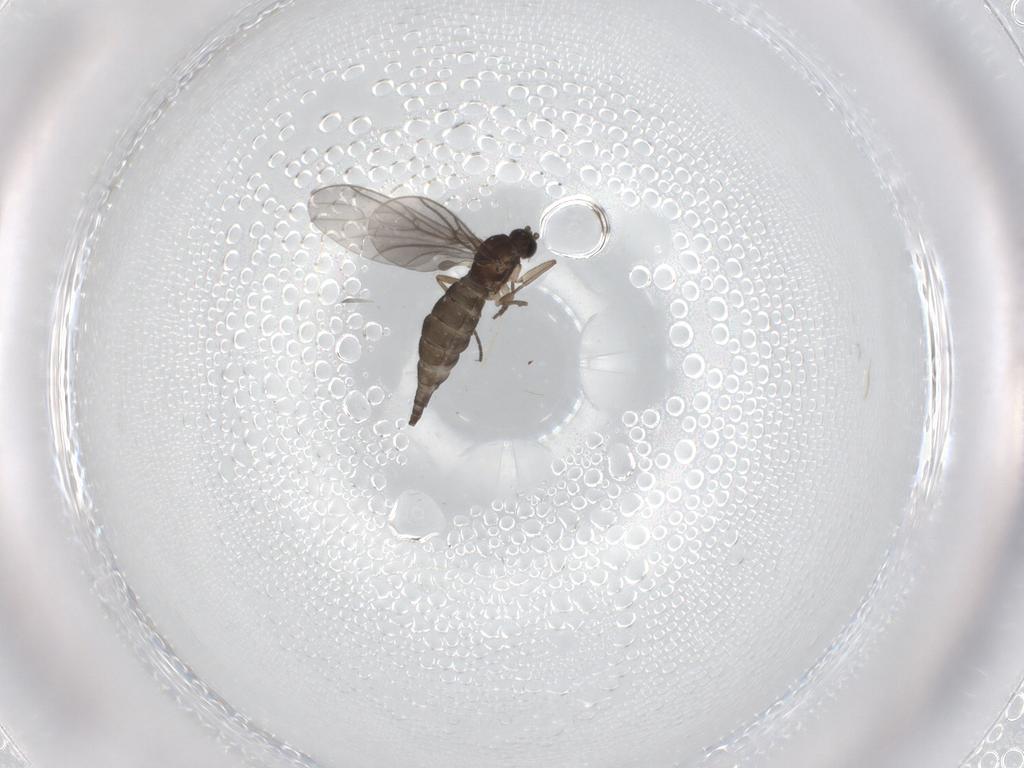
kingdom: Animalia
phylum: Arthropoda
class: Insecta
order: Diptera
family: Sciaridae
